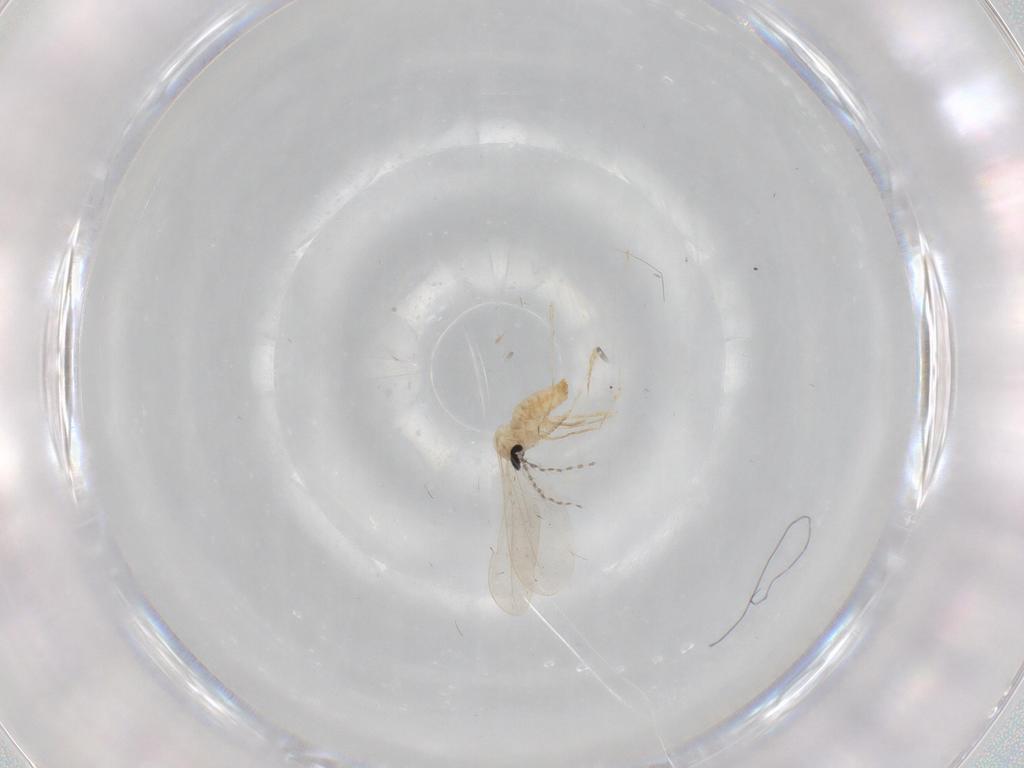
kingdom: Animalia
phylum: Arthropoda
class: Insecta
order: Diptera
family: Cecidomyiidae
